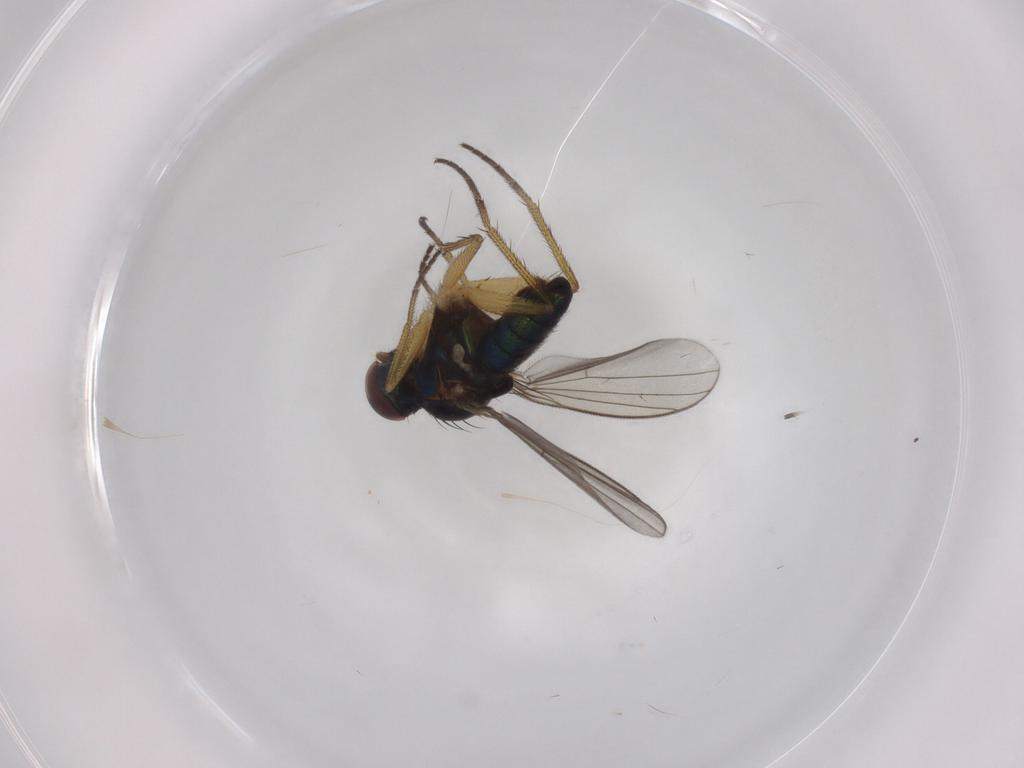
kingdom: Animalia
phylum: Arthropoda
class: Insecta
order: Diptera
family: Dolichopodidae
